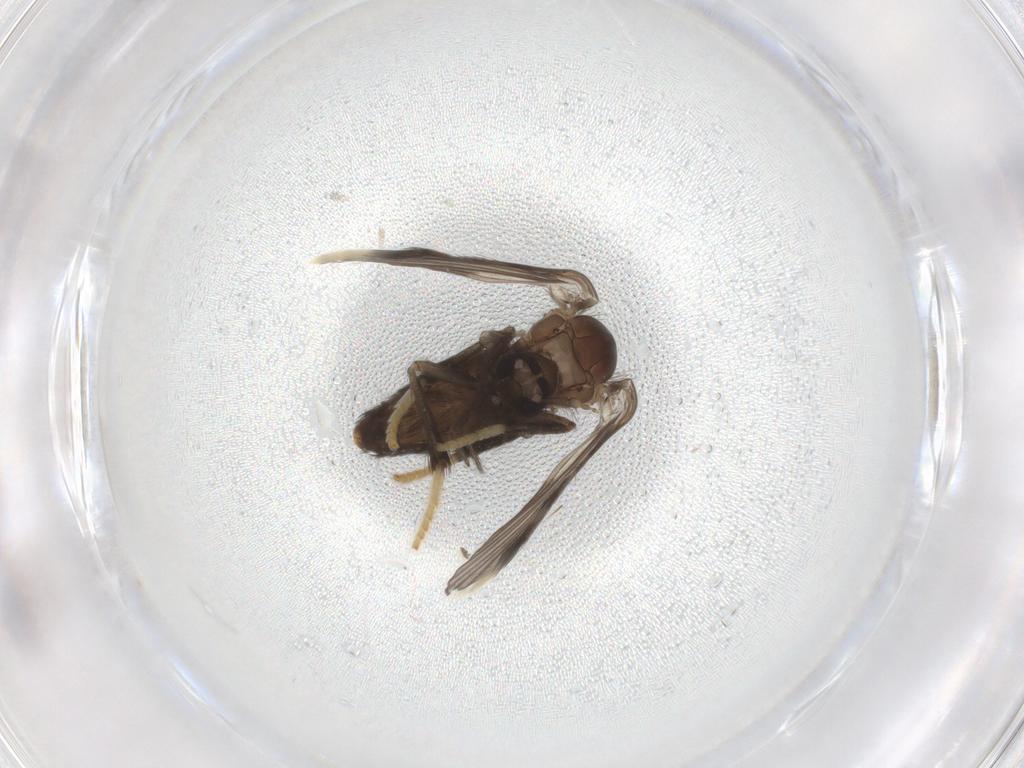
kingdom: Animalia
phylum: Arthropoda
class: Insecta
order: Diptera
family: Psychodidae
